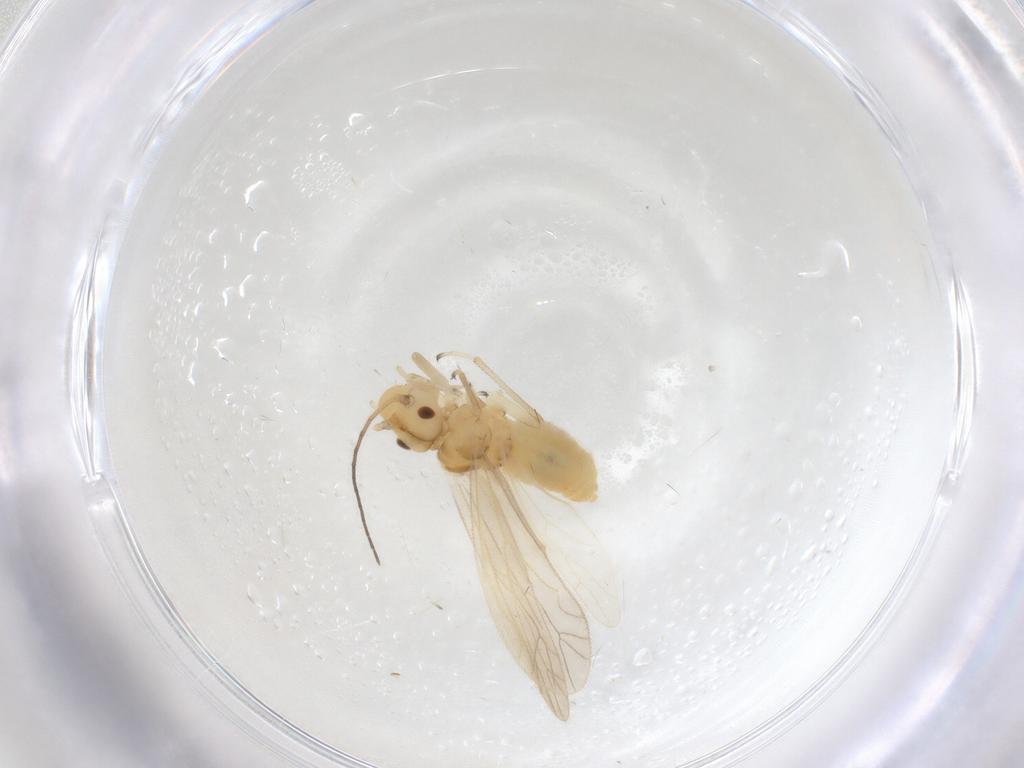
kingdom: Animalia
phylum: Arthropoda
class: Insecta
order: Psocodea
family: Caeciliusidae
